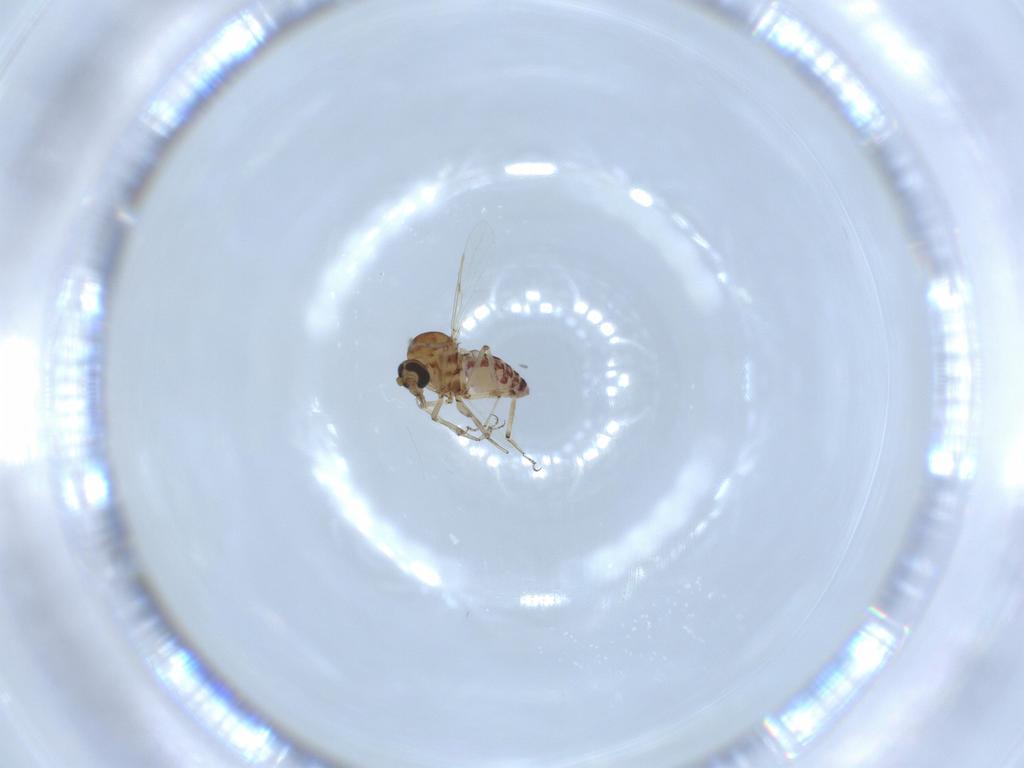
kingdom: Animalia
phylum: Arthropoda
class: Insecta
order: Diptera
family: Ceratopogonidae
